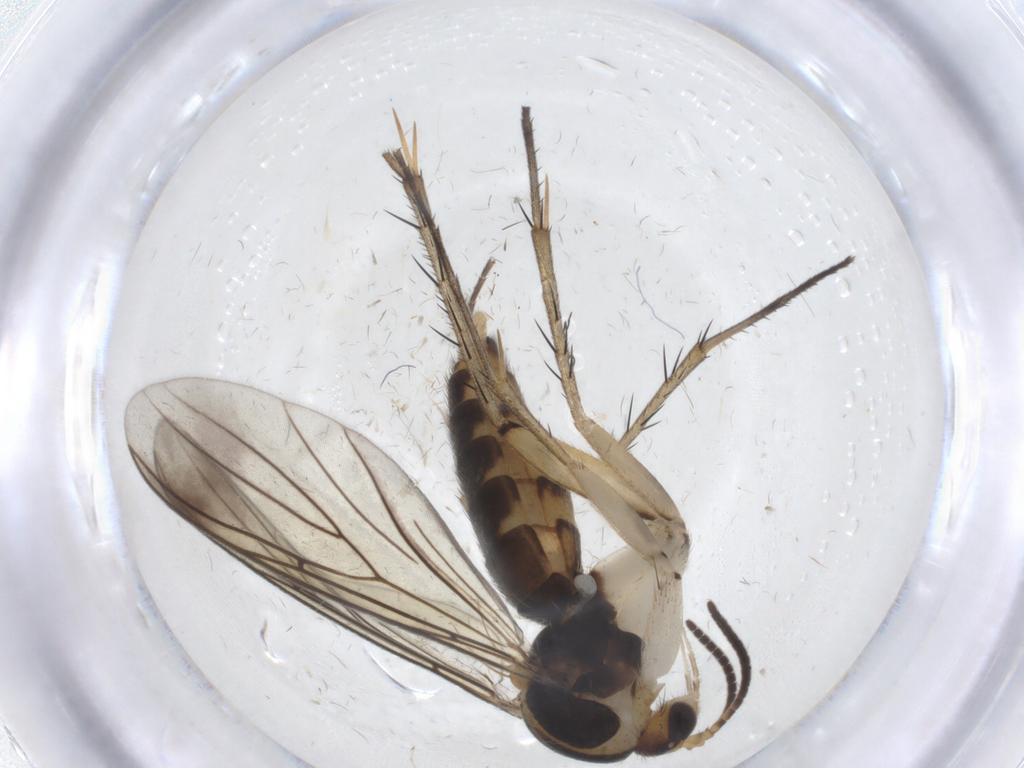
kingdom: Animalia
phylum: Arthropoda
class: Insecta
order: Diptera
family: Mycetophilidae
